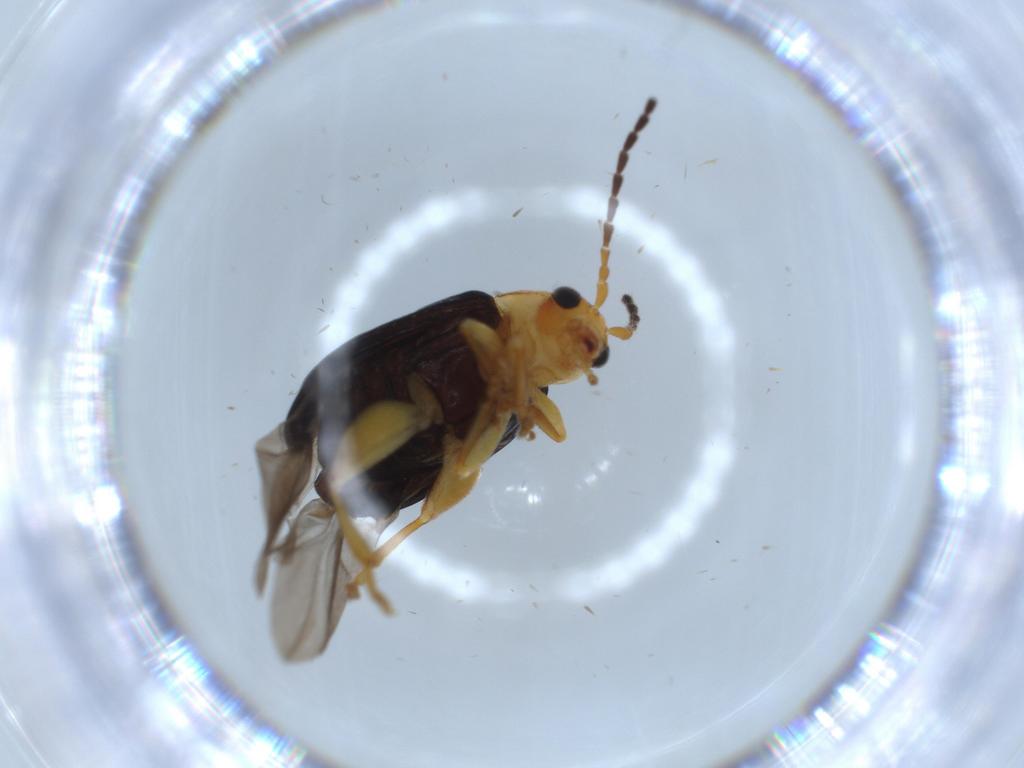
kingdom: Animalia
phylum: Arthropoda
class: Insecta
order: Coleoptera
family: Chrysomelidae
